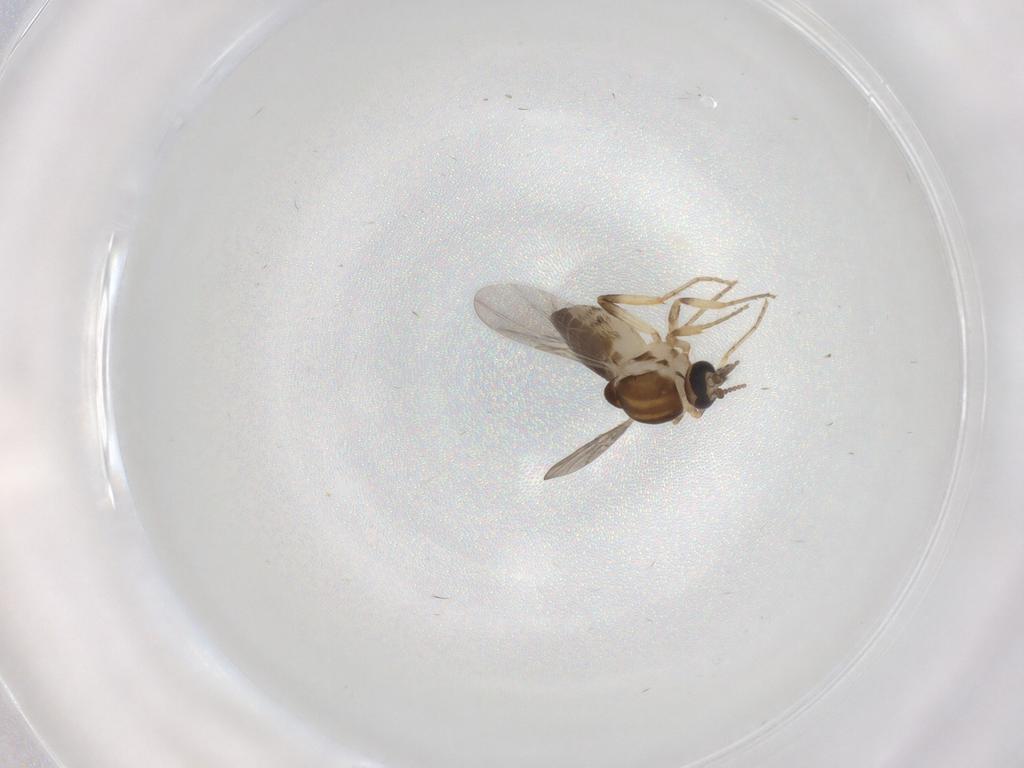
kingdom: Animalia
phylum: Arthropoda
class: Insecta
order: Diptera
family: Ceratopogonidae
